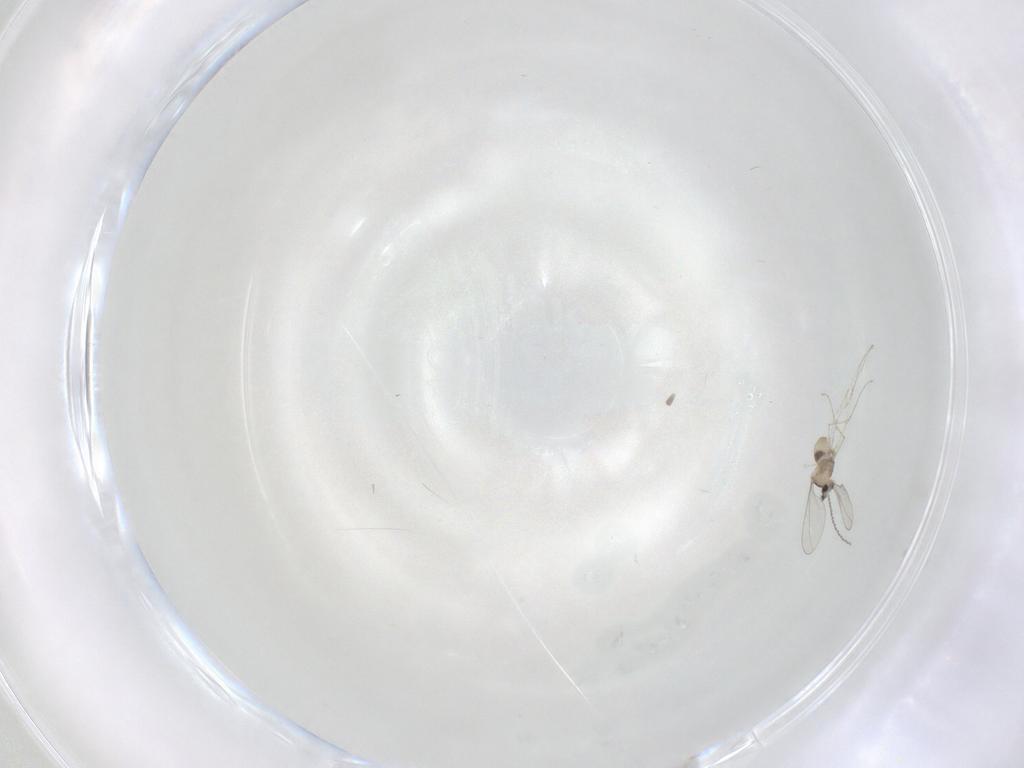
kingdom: Animalia
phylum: Arthropoda
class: Insecta
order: Diptera
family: Cecidomyiidae
